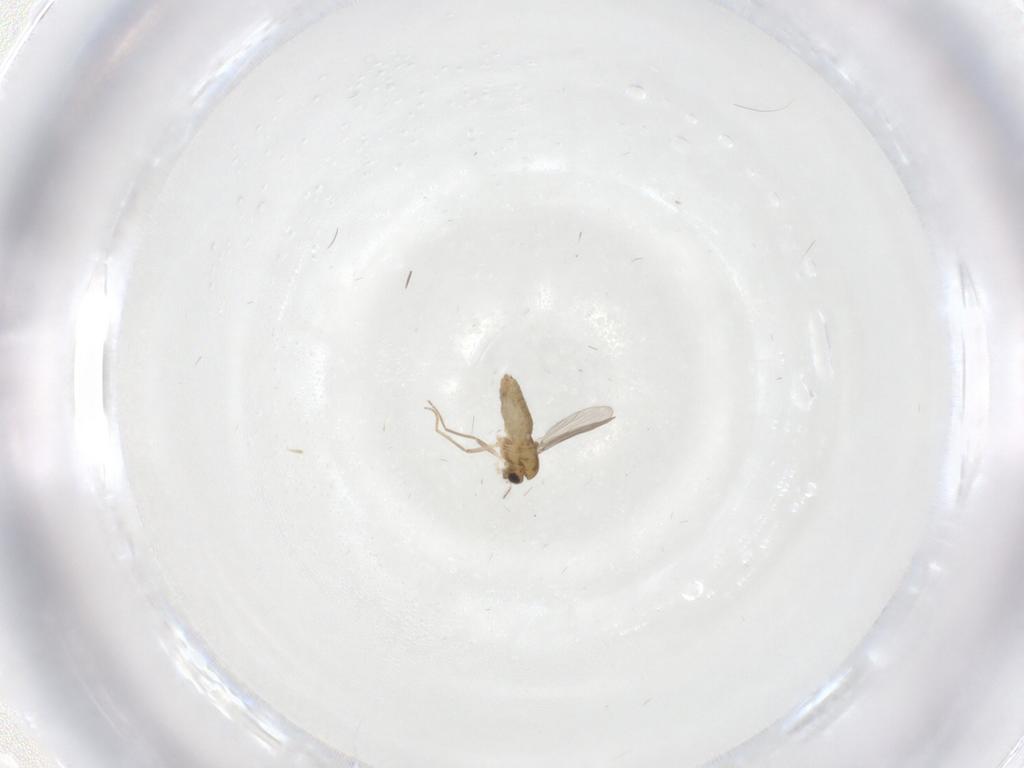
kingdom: Animalia
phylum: Arthropoda
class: Insecta
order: Diptera
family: Chironomidae
